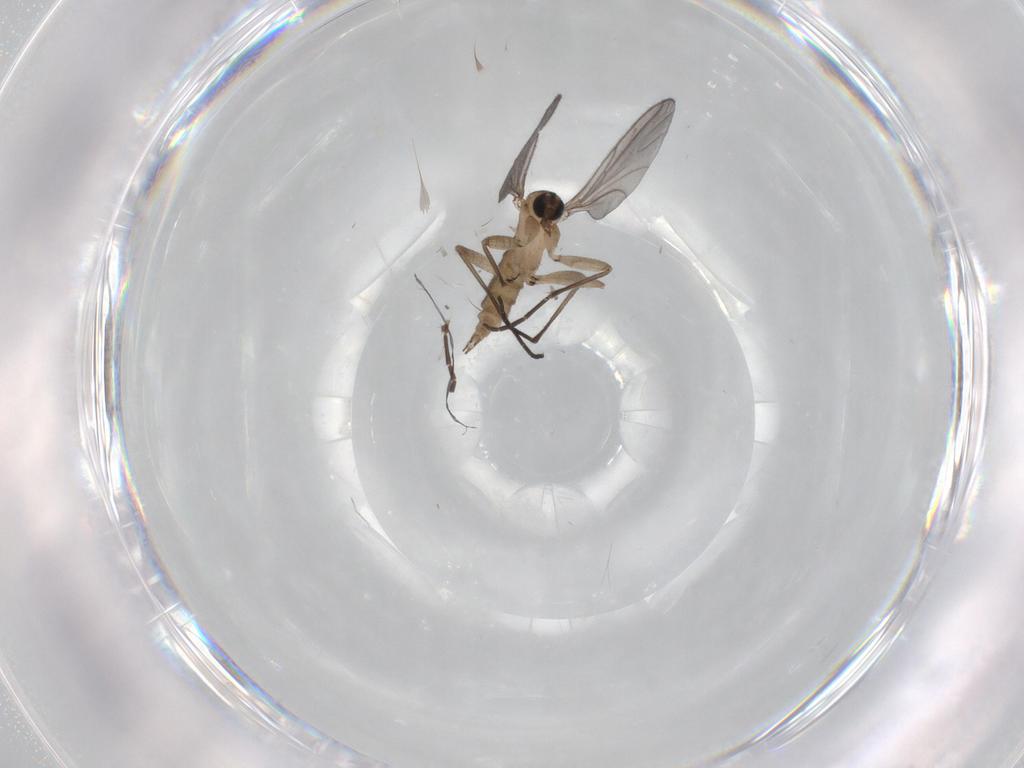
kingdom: Animalia
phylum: Arthropoda
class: Insecta
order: Diptera
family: Sciaridae
